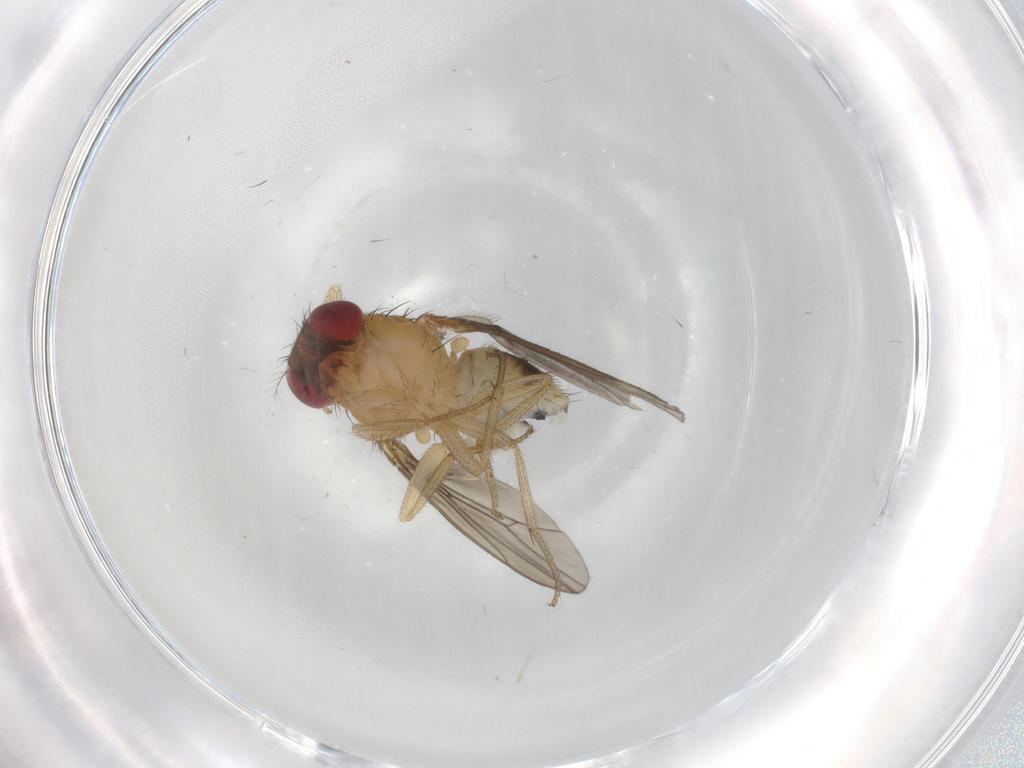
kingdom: Animalia
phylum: Arthropoda
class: Insecta
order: Diptera
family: Drosophilidae
